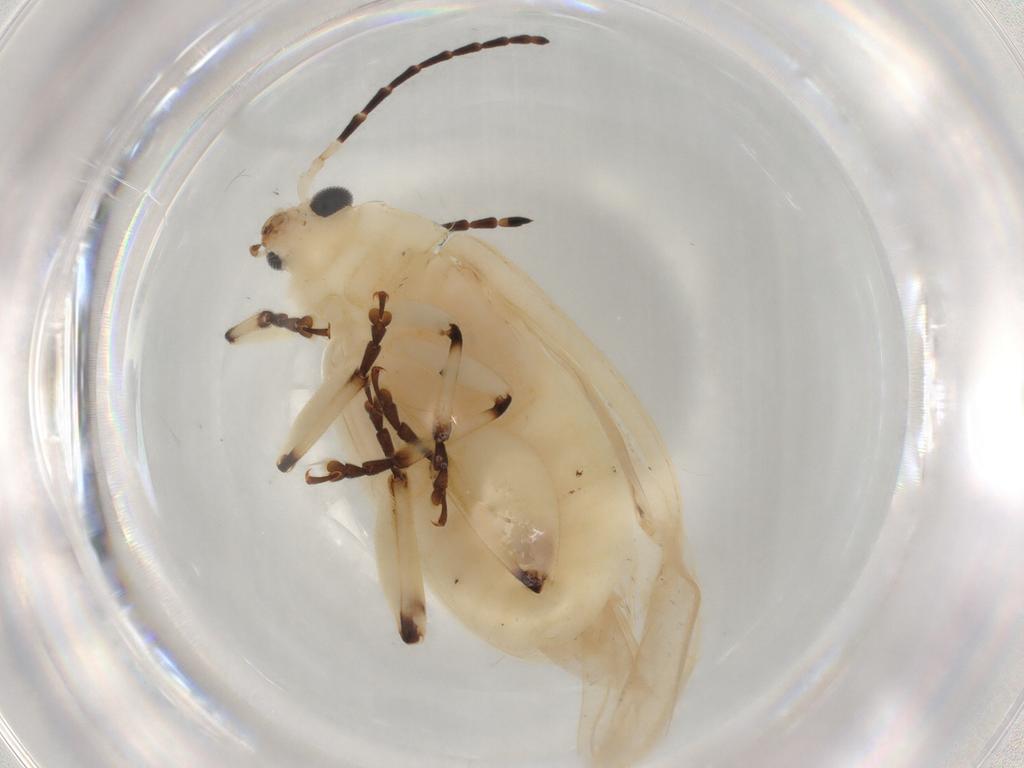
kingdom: Animalia
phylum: Arthropoda
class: Insecta
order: Coleoptera
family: Chrysomelidae
